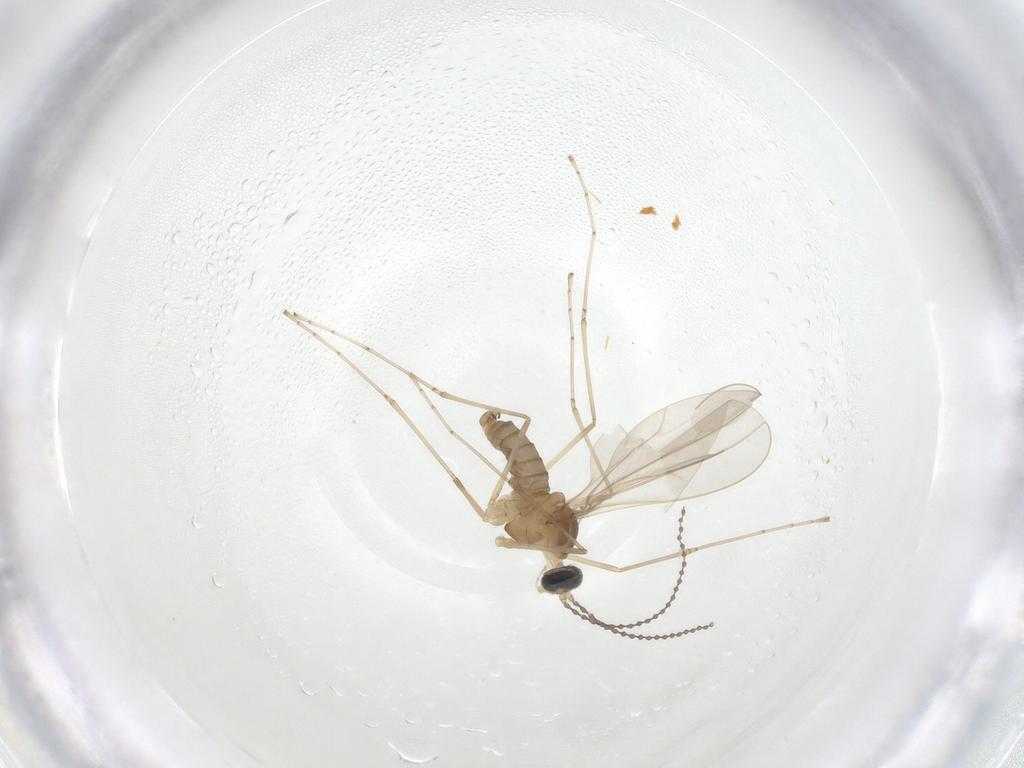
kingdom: Animalia
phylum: Arthropoda
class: Insecta
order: Diptera
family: Cecidomyiidae
